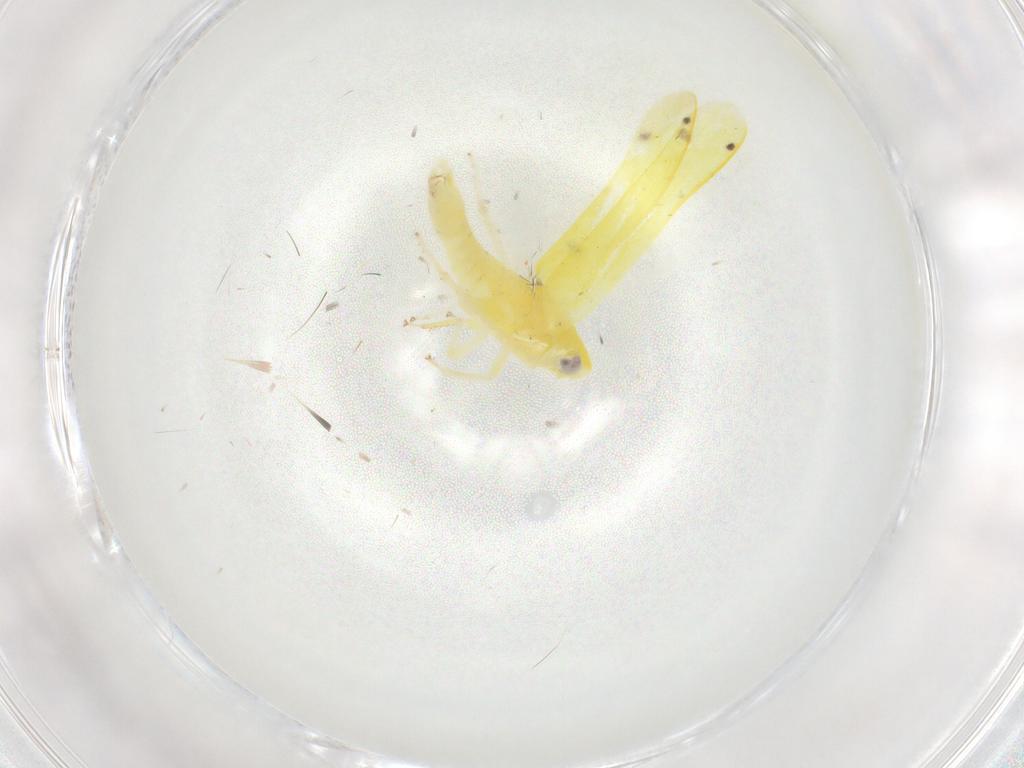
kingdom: Animalia
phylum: Arthropoda
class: Insecta
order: Hemiptera
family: Cicadellidae
